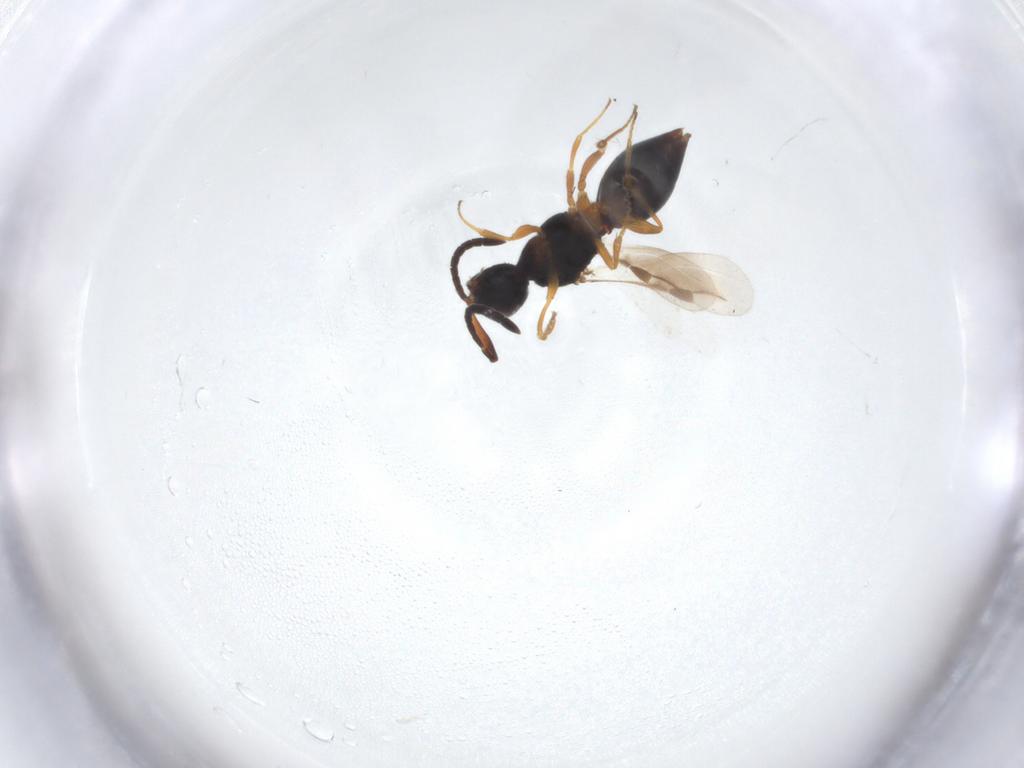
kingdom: Animalia
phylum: Arthropoda
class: Insecta
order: Hymenoptera
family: Megaspilidae
